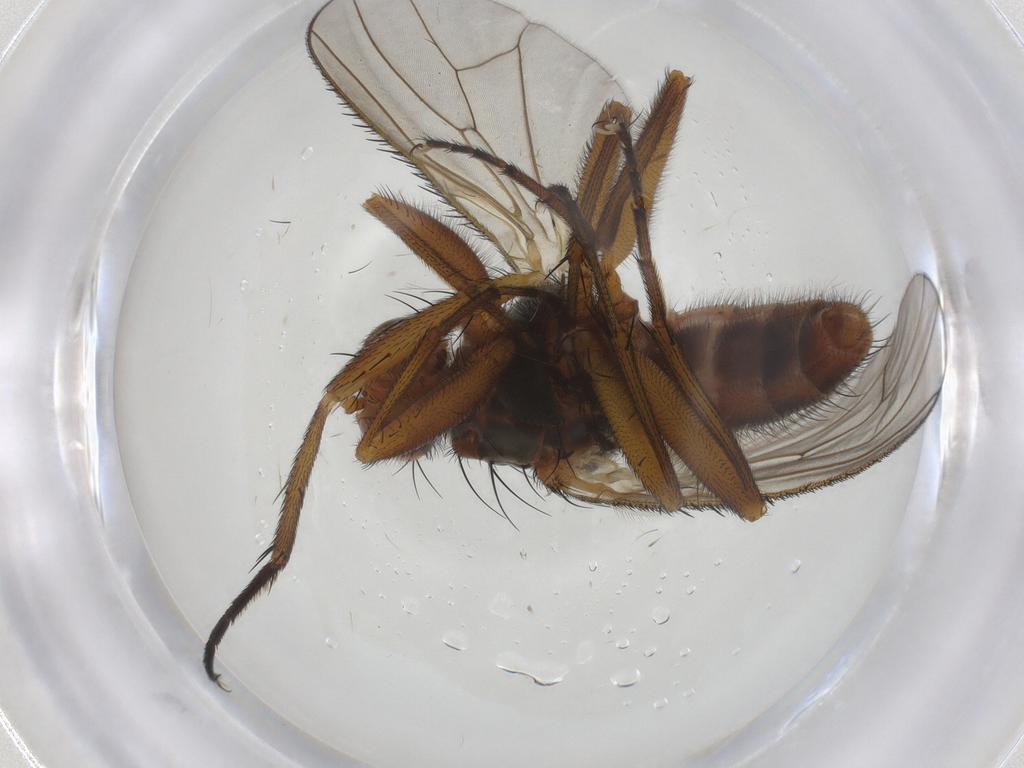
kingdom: Animalia
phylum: Arthropoda
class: Insecta
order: Diptera
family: Heleomyzidae
